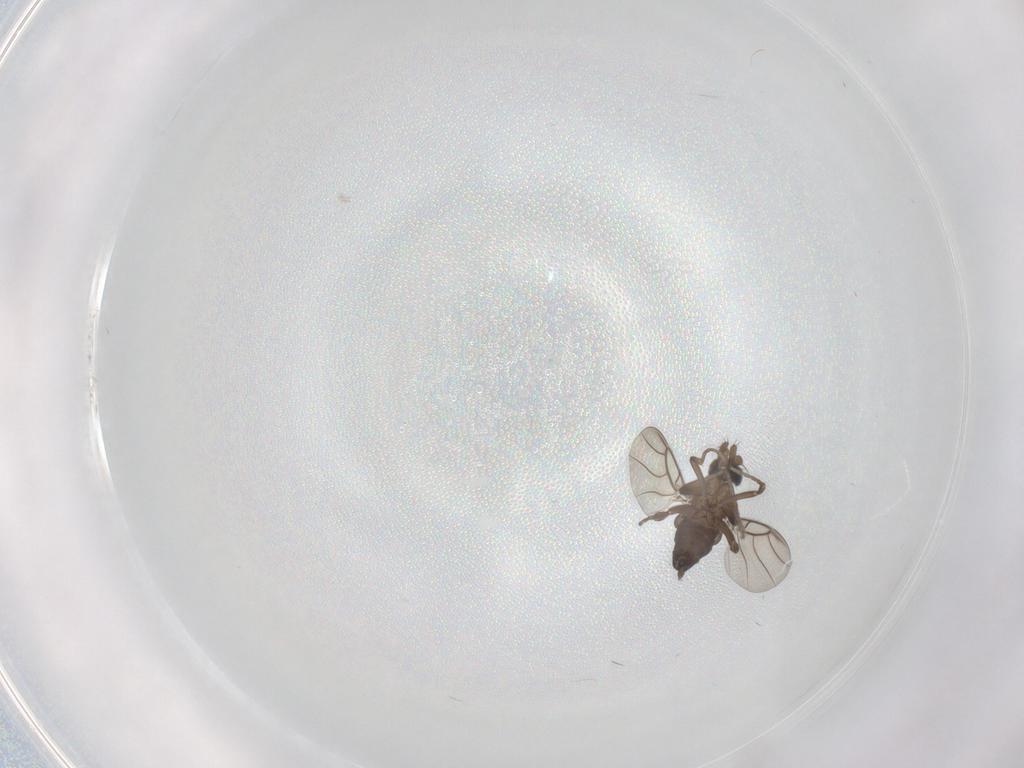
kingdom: Animalia
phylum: Arthropoda
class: Insecta
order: Diptera
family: Limoniidae
